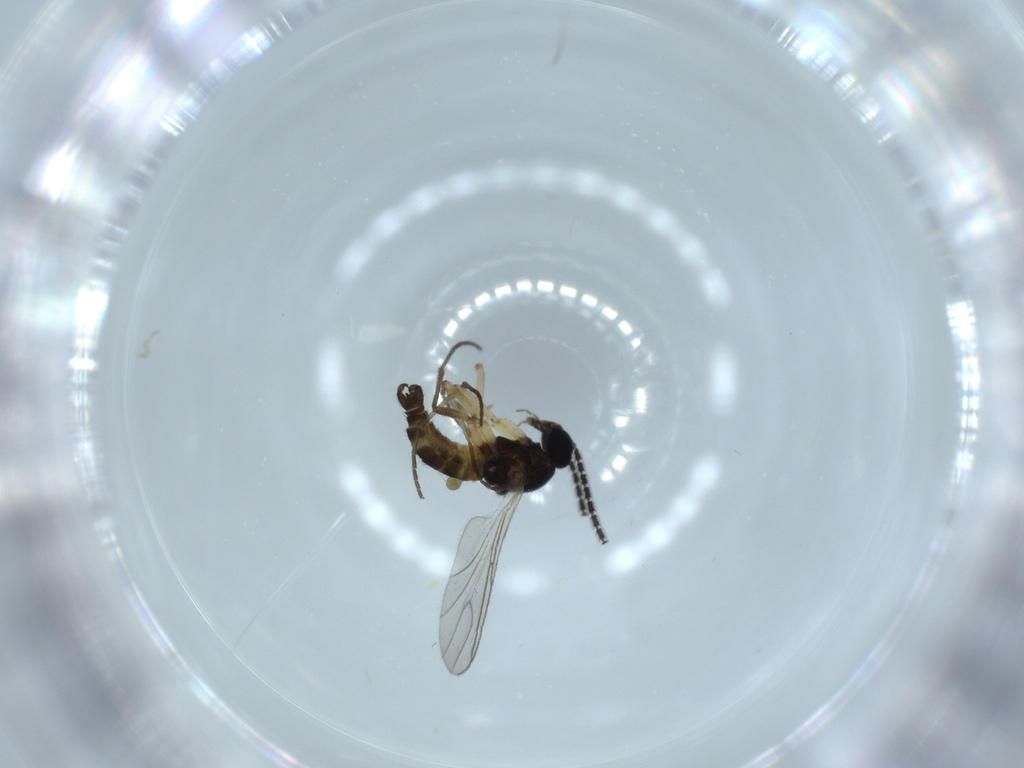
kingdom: Animalia
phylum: Arthropoda
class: Insecta
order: Diptera
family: Sciaridae
